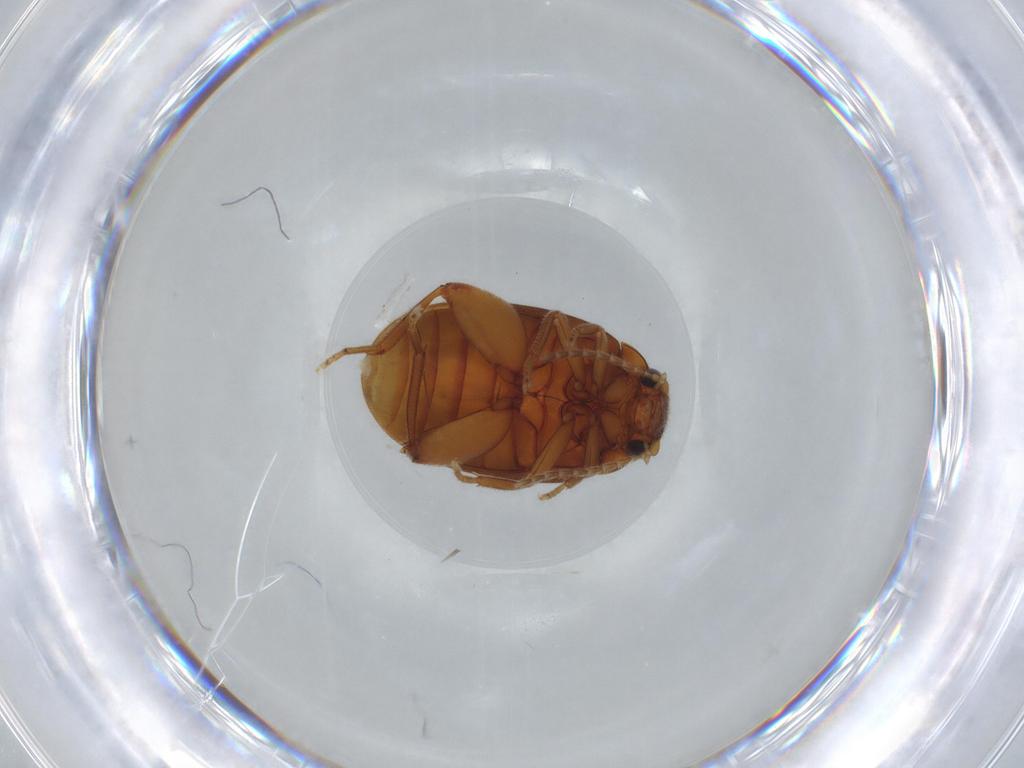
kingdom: Animalia
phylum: Arthropoda
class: Insecta
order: Coleoptera
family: Scirtidae
